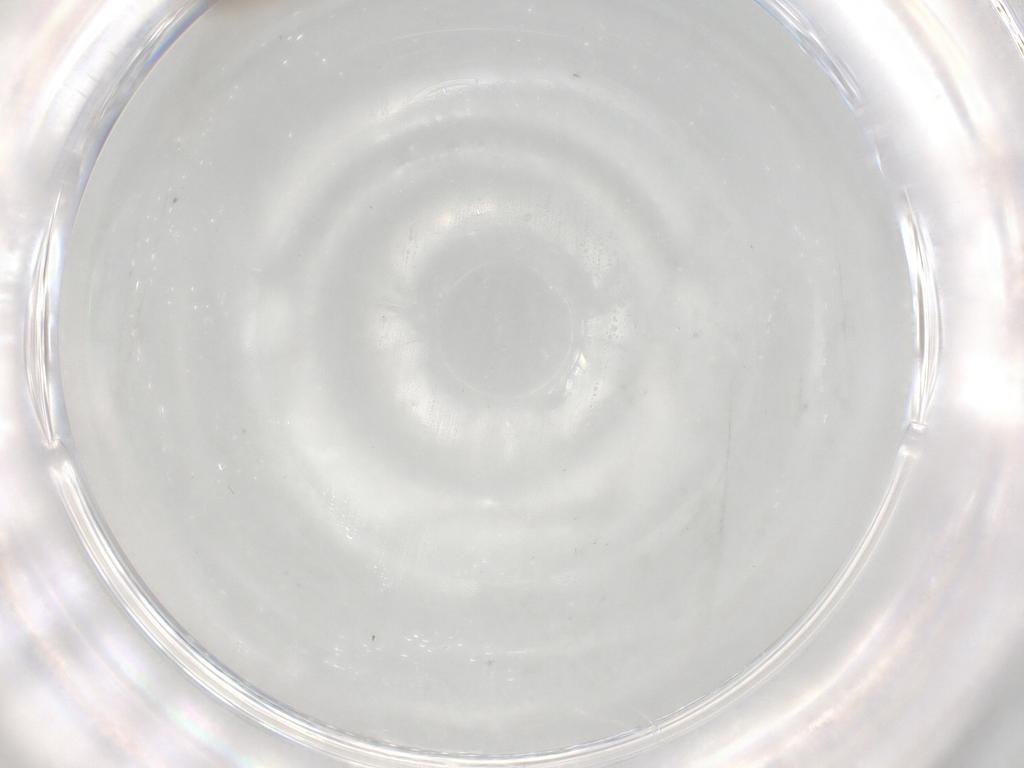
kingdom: Animalia
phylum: Arthropoda
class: Insecta
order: Diptera
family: Cecidomyiidae
